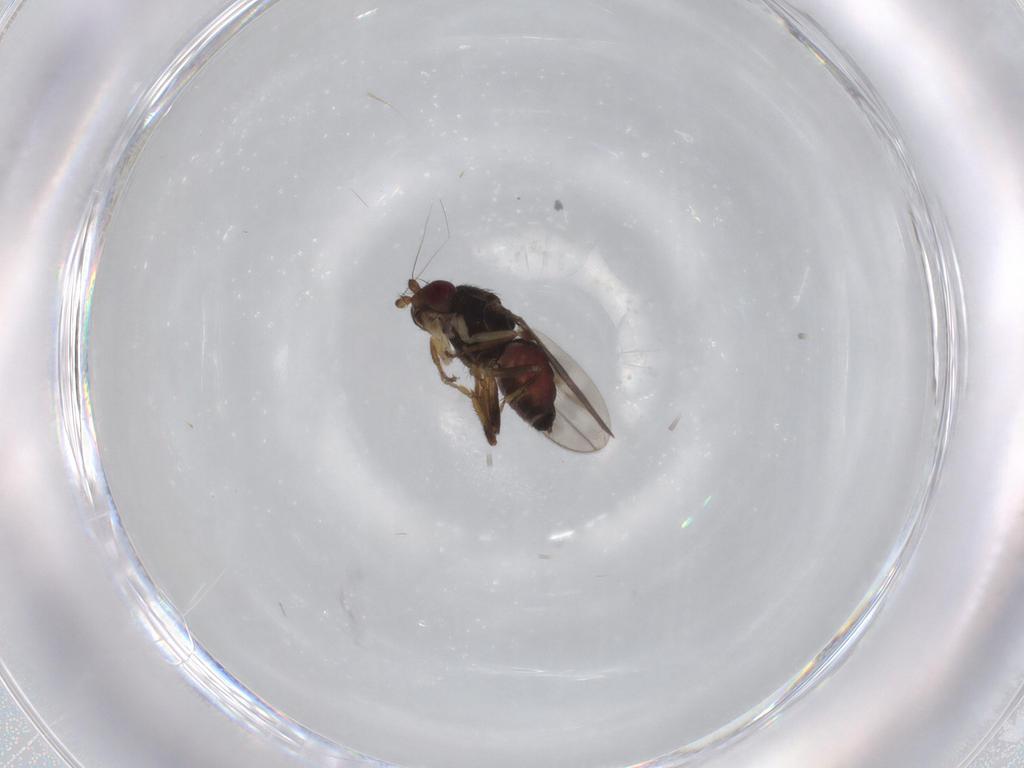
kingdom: Animalia
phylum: Arthropoda
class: Insecta
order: Diptera
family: Sphaeroceridae
